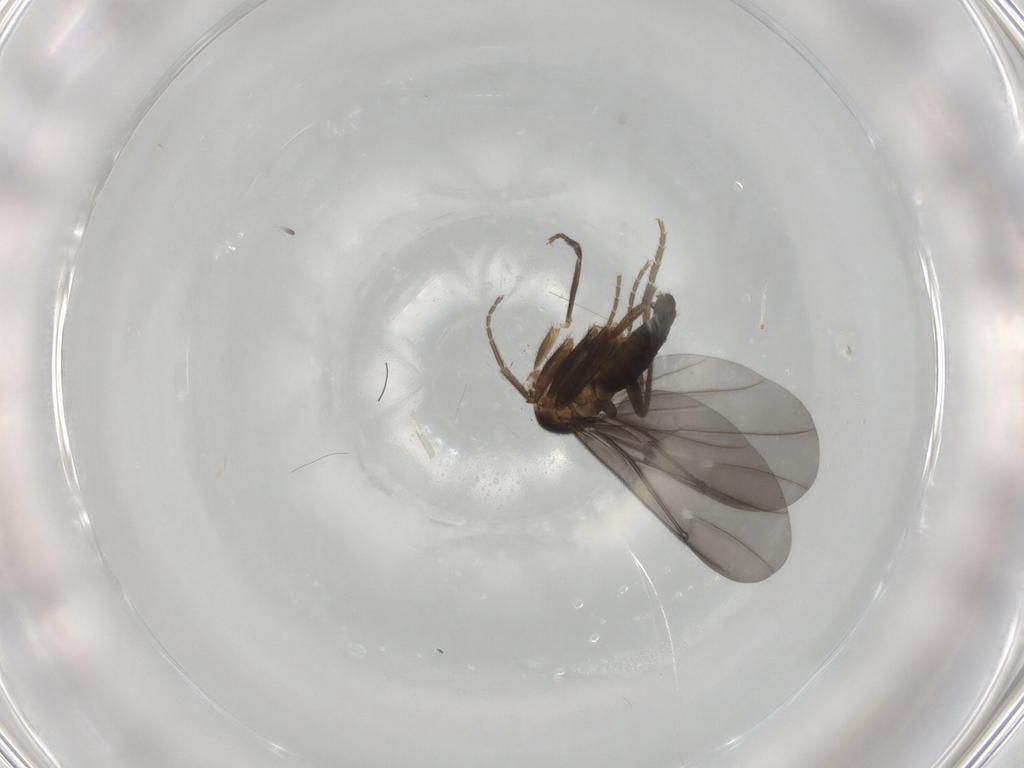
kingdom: Animalia
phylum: Arthropoda
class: Insecta
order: Diptera
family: Phoridae
